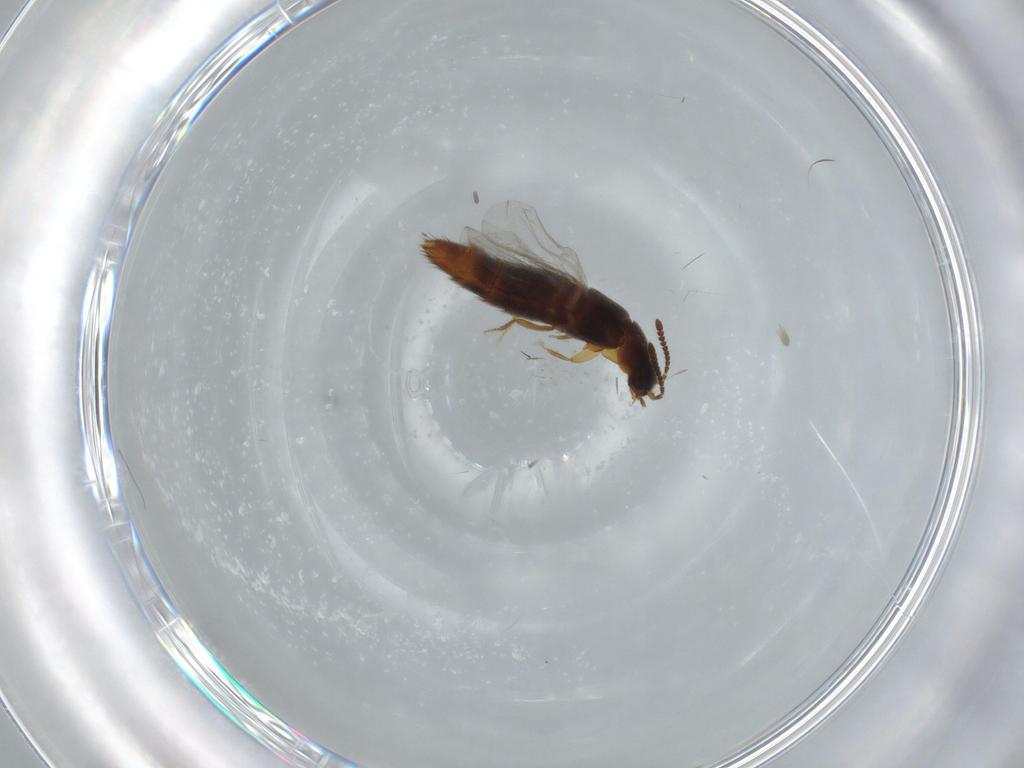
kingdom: Animalia
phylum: Arthropoda
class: Insecta
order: Coleoptera
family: Staphylinidae
